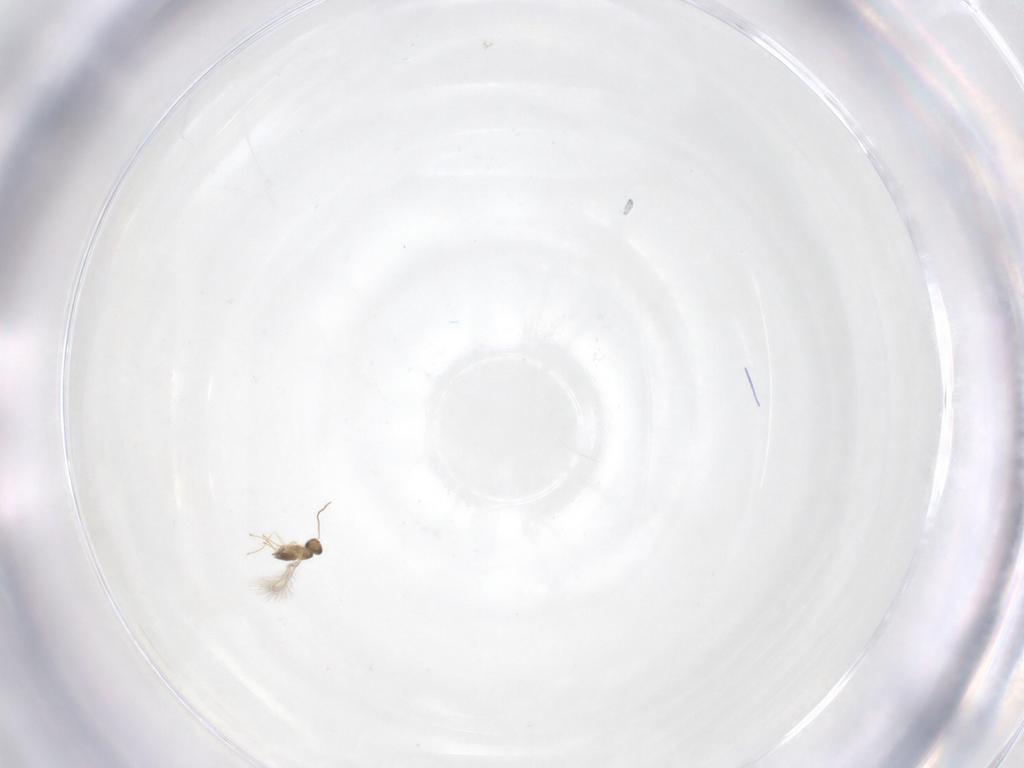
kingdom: Animalia
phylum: Arthropoda
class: Insecta
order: Hymenoptera
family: Mymaridae
